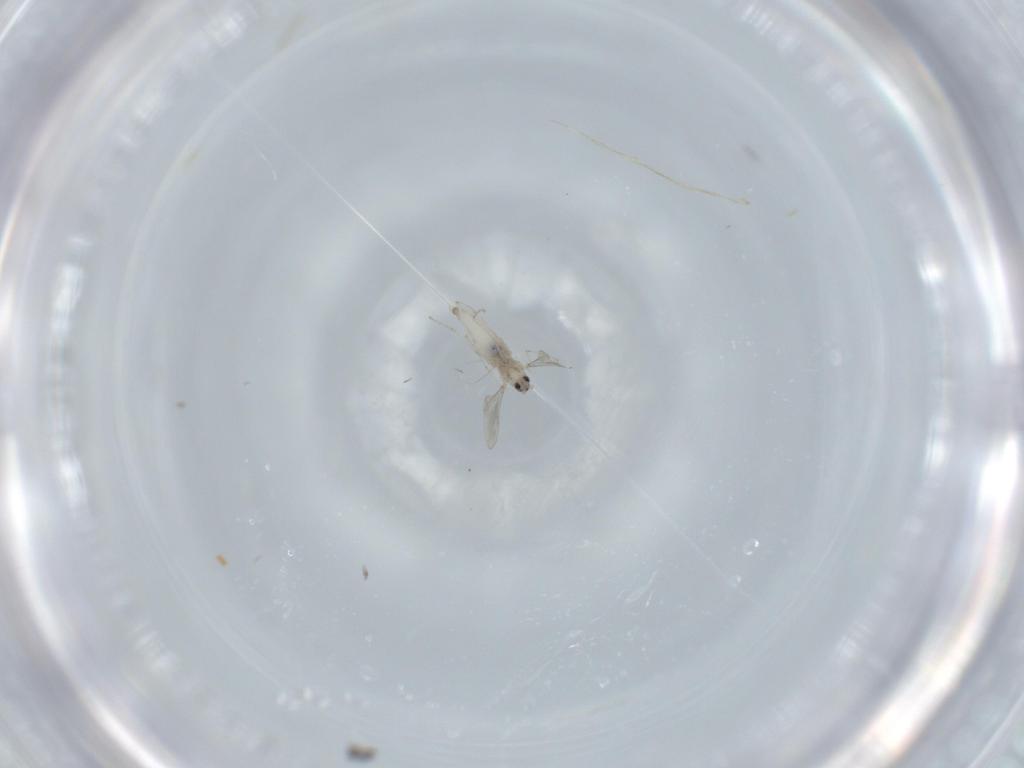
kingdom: Animalia
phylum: Arthropoda
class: Insecta
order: Diptera
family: Cecidomyiidae
